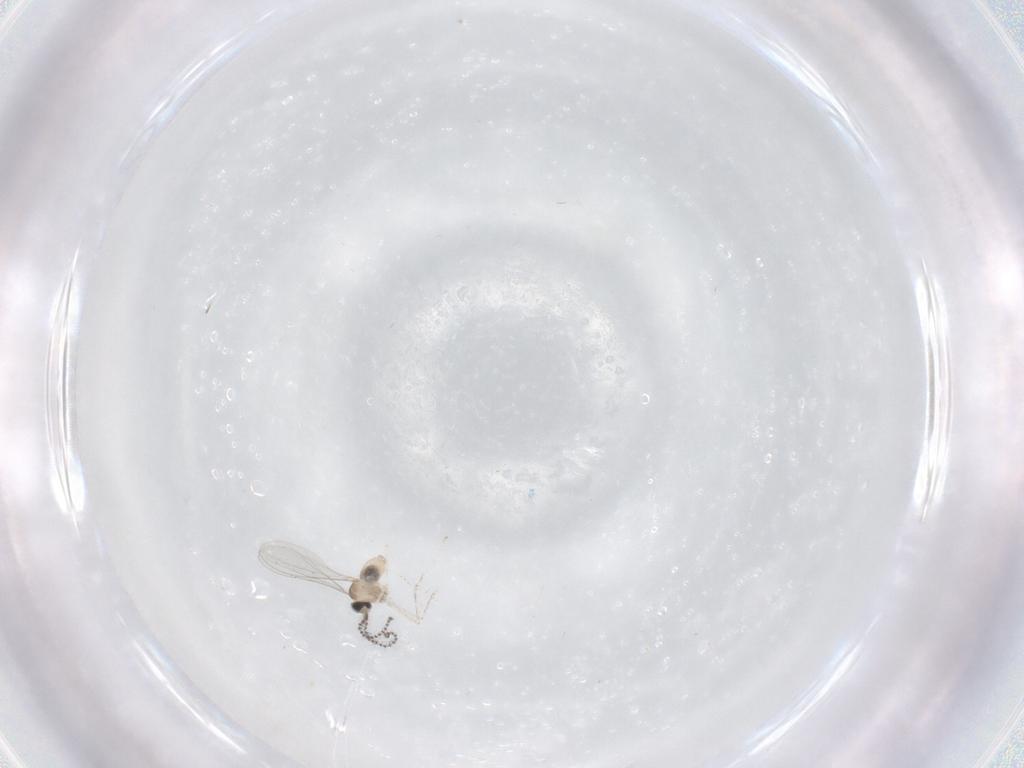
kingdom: Animalia
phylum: Arthropoda
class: Insecta
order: Diptera
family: Cecidomyiidae
